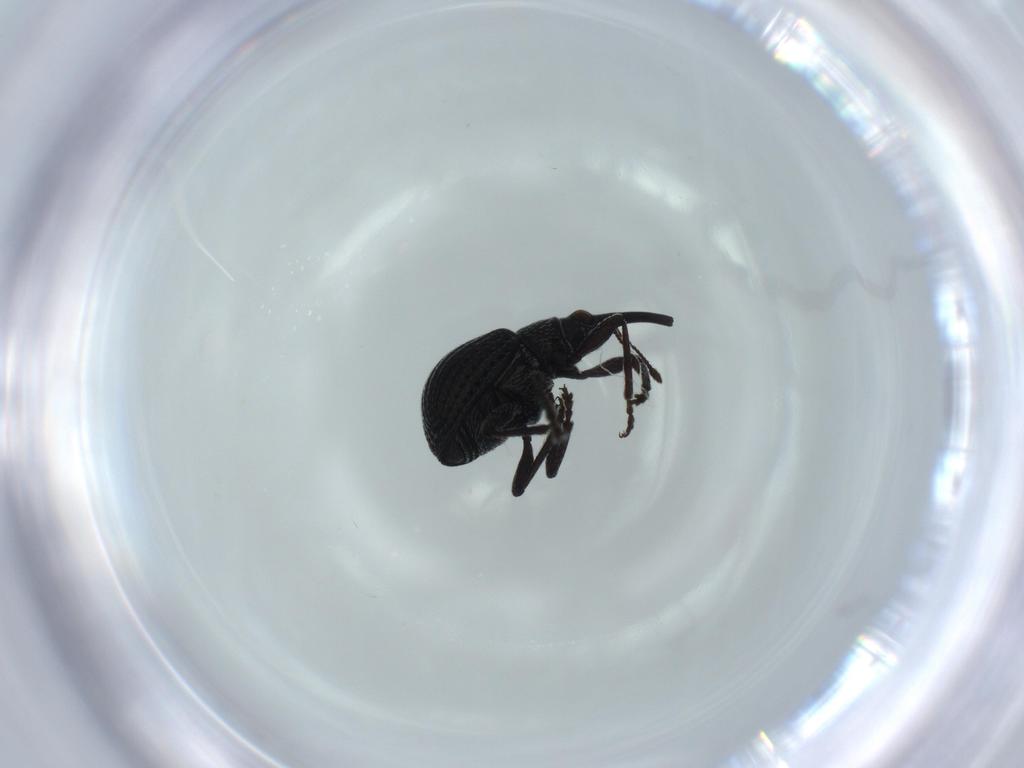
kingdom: Animalia
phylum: Arthropoda
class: Insecta
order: Coleoptera
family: Brentidae
